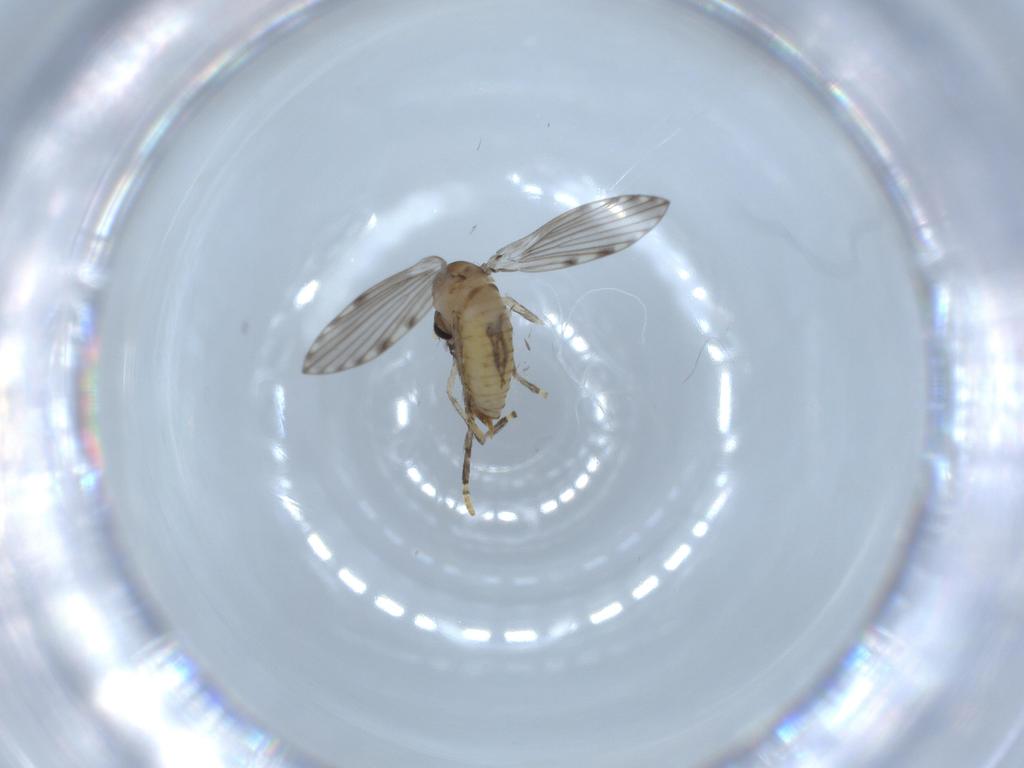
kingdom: Animalia
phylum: Arthropoda
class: Insecta
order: Diptera
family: Psychodidae
